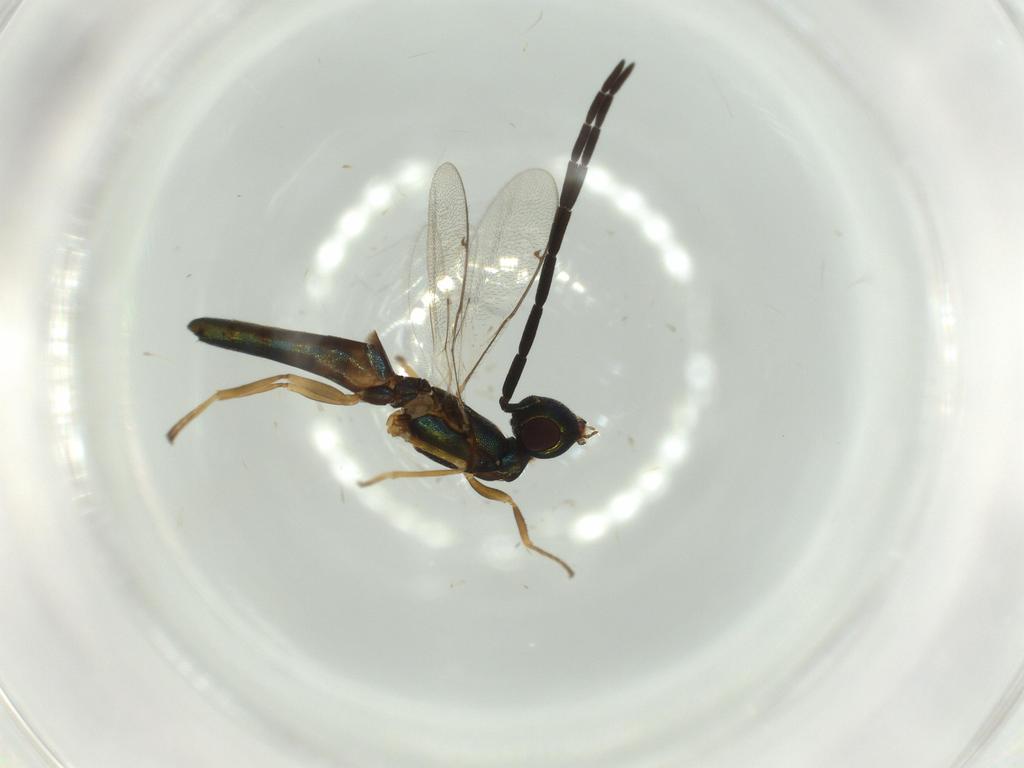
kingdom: Animalia
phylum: Arthropoda
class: Insecta
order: Hymenoptera
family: Eupelmidae
